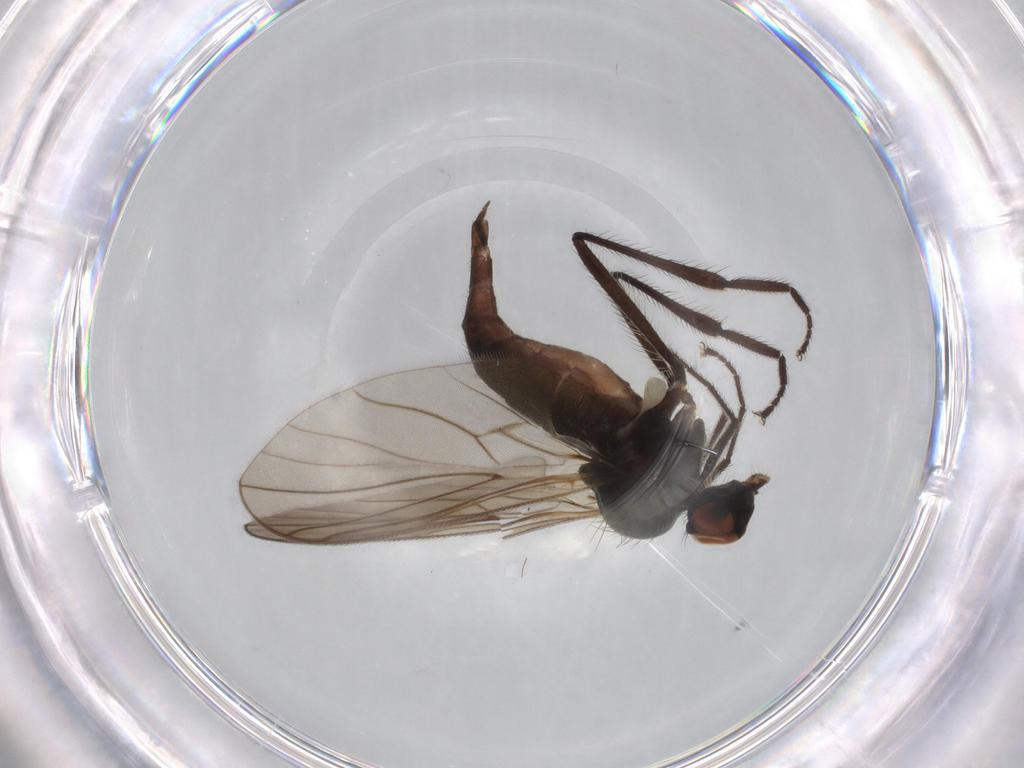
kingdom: Animalia
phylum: Arthropoda
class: Insecta
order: Diptera
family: Hybotidae
